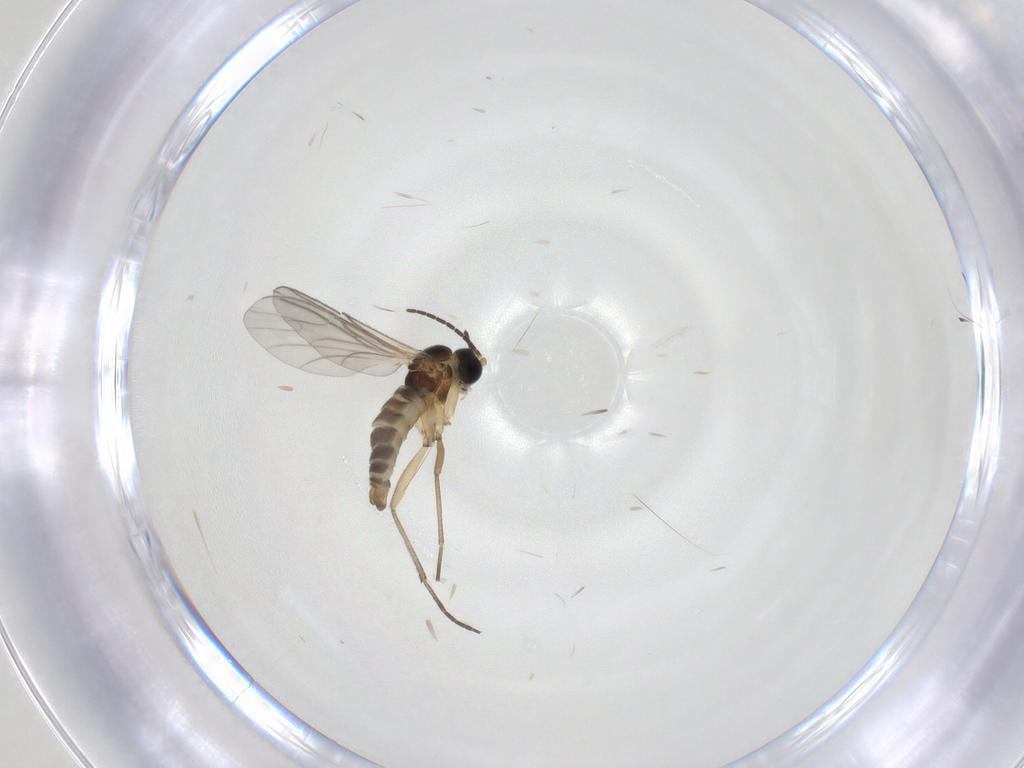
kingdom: Animalia
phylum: Arthropoda
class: Insecta
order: Diptera
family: Sciaridae
